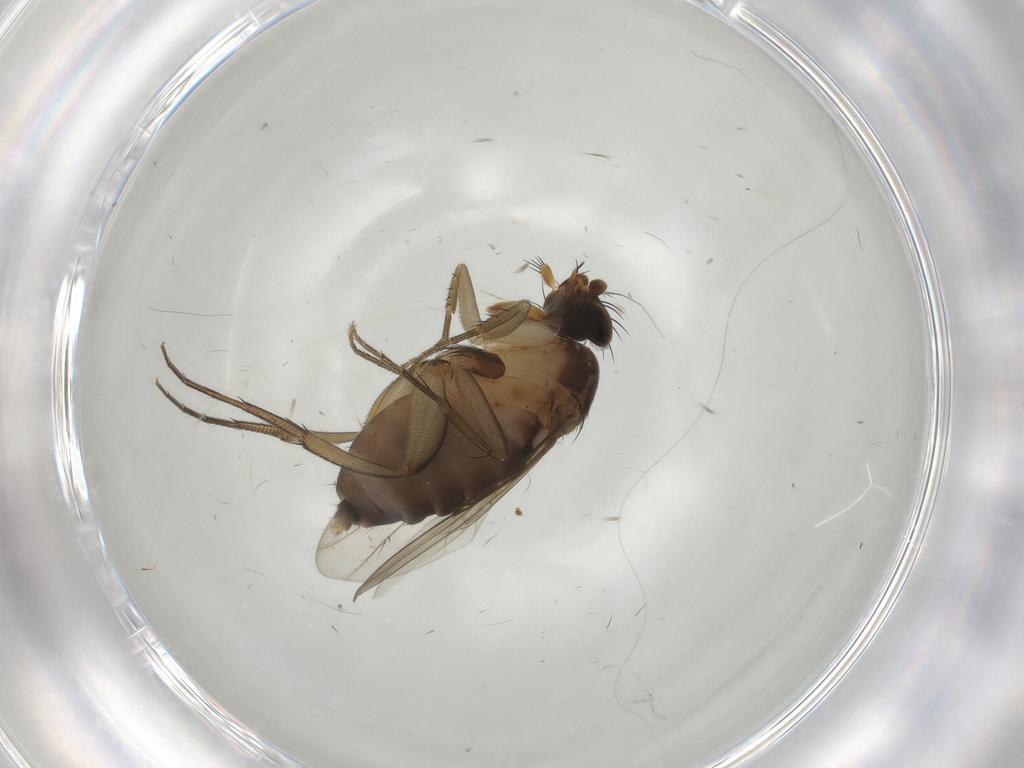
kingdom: Animalia
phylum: Arthropoda
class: Insecta
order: Diptera
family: Phoridae
